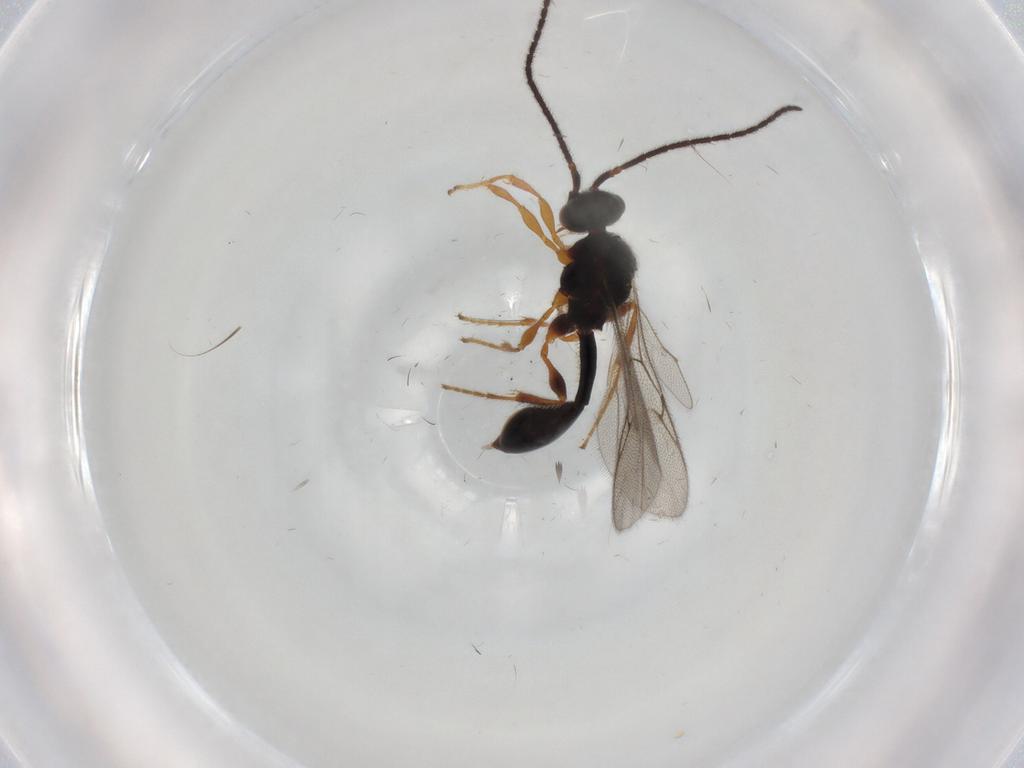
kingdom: Animalia
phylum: Arthropoda
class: Insecta
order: Hymenoptera
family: Diapriidae
